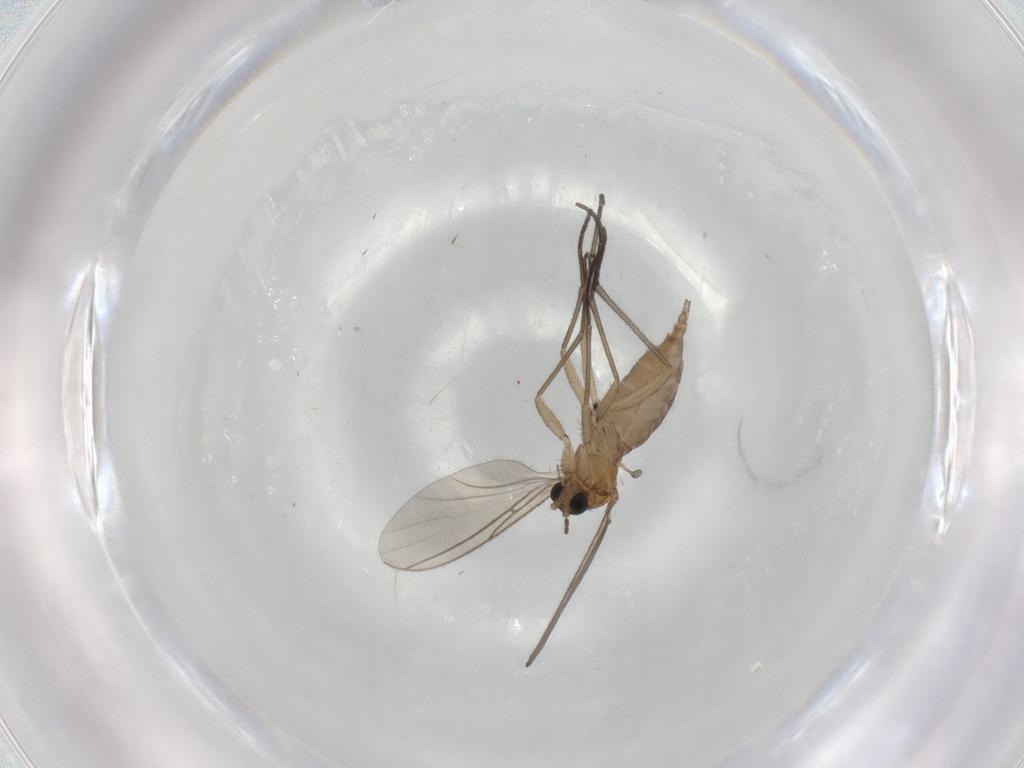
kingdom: Animalia
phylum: Arthropoda
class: Insecta
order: Diptera
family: Sciaridae
